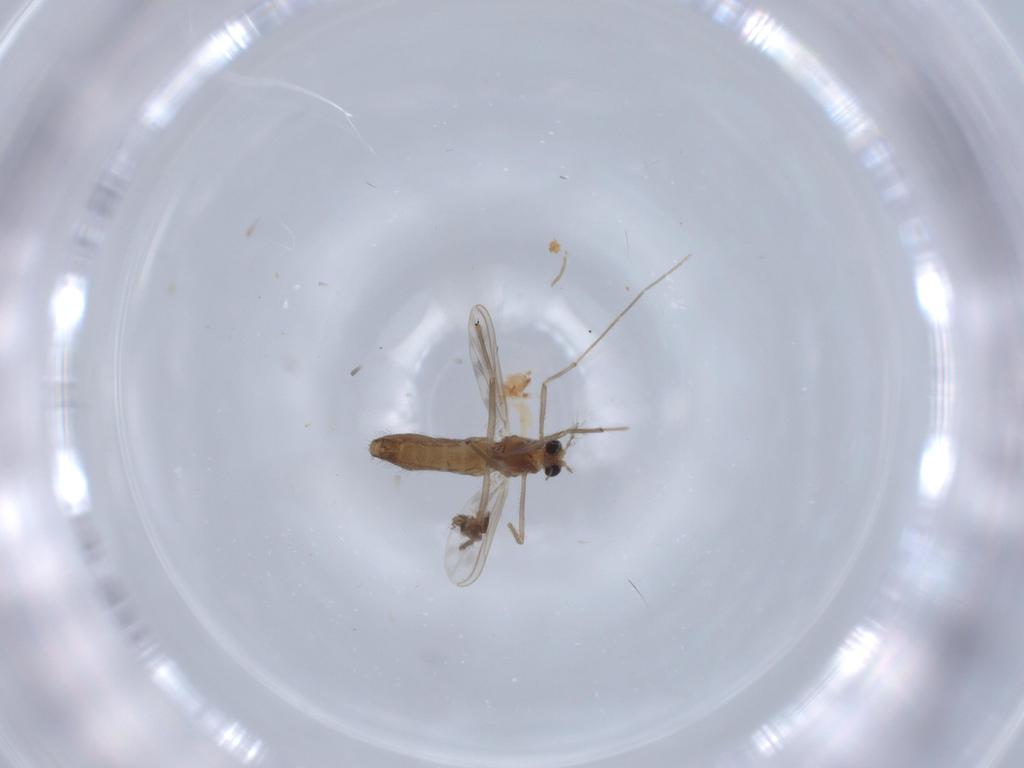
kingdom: Animalia
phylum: Arthropoda
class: Insecta
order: Diptera
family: Chironomidae
